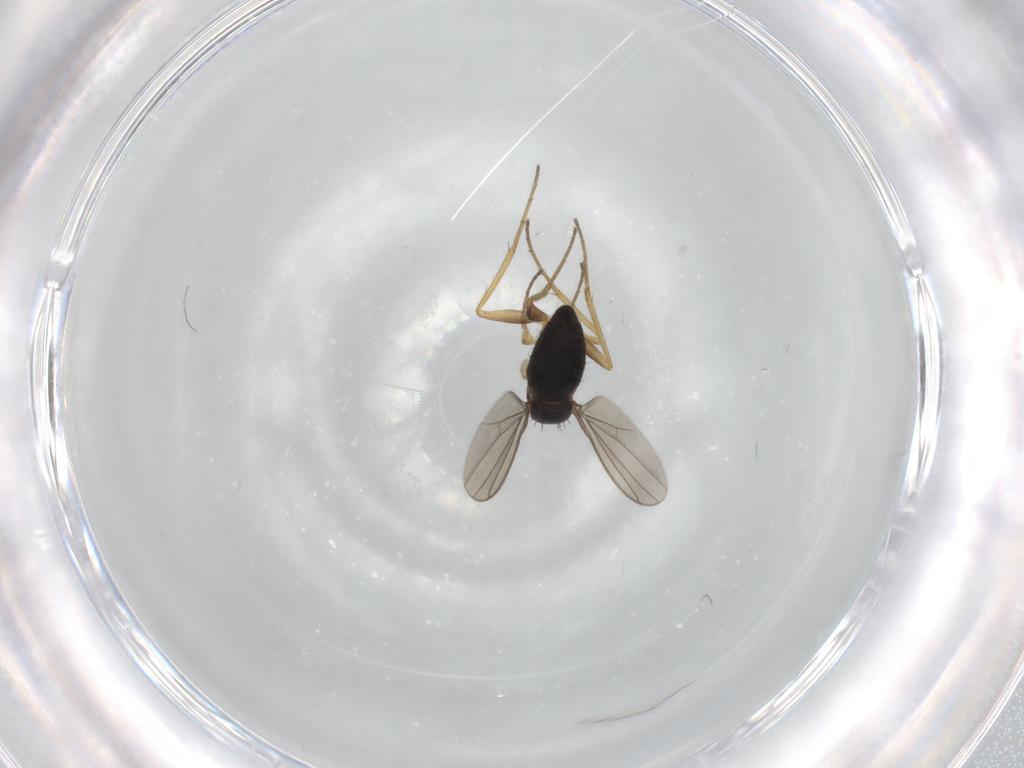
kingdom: Animalia
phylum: Arthropoda
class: Insecta
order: Diptera
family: Dolichopodidae
